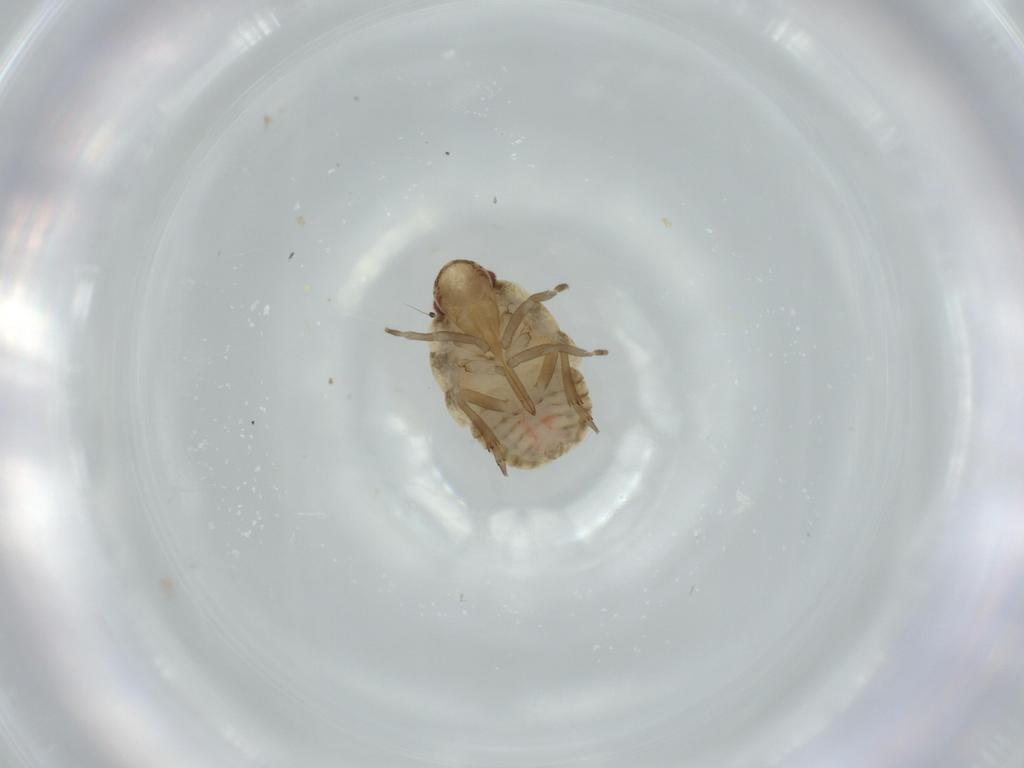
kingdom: Animalia
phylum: Arthropoda
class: Insecta
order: Hemiptera
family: Flatidae
